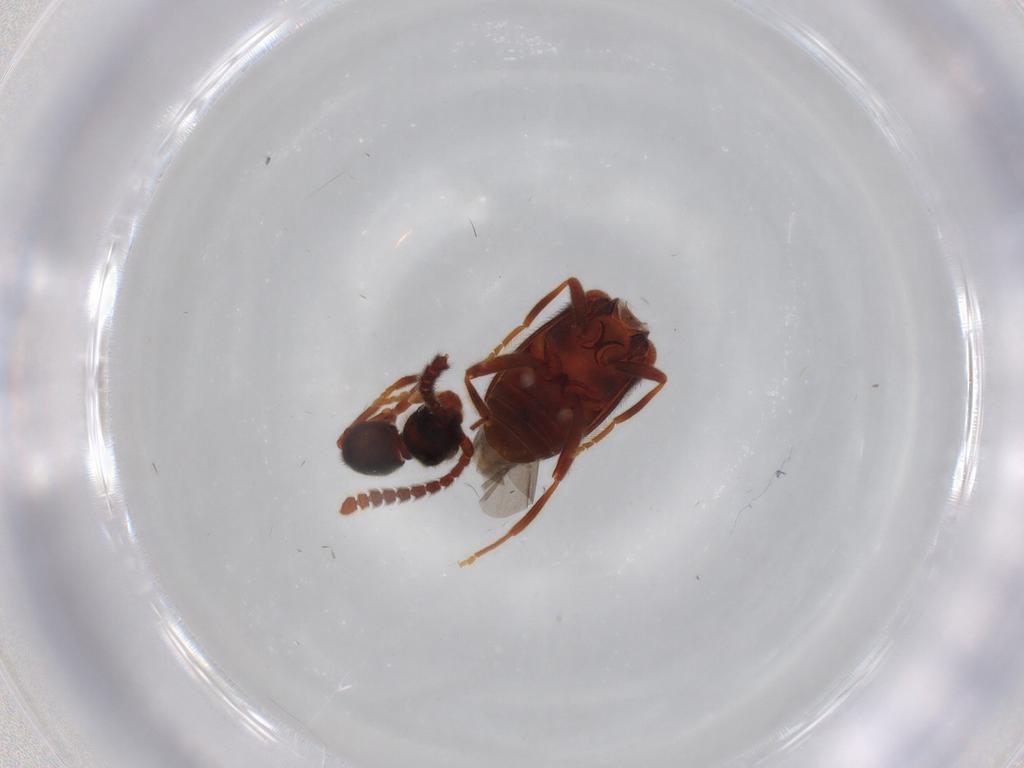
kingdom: Animalia
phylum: Arthropoda
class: Insecta
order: Coleoptera
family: Aderidae
